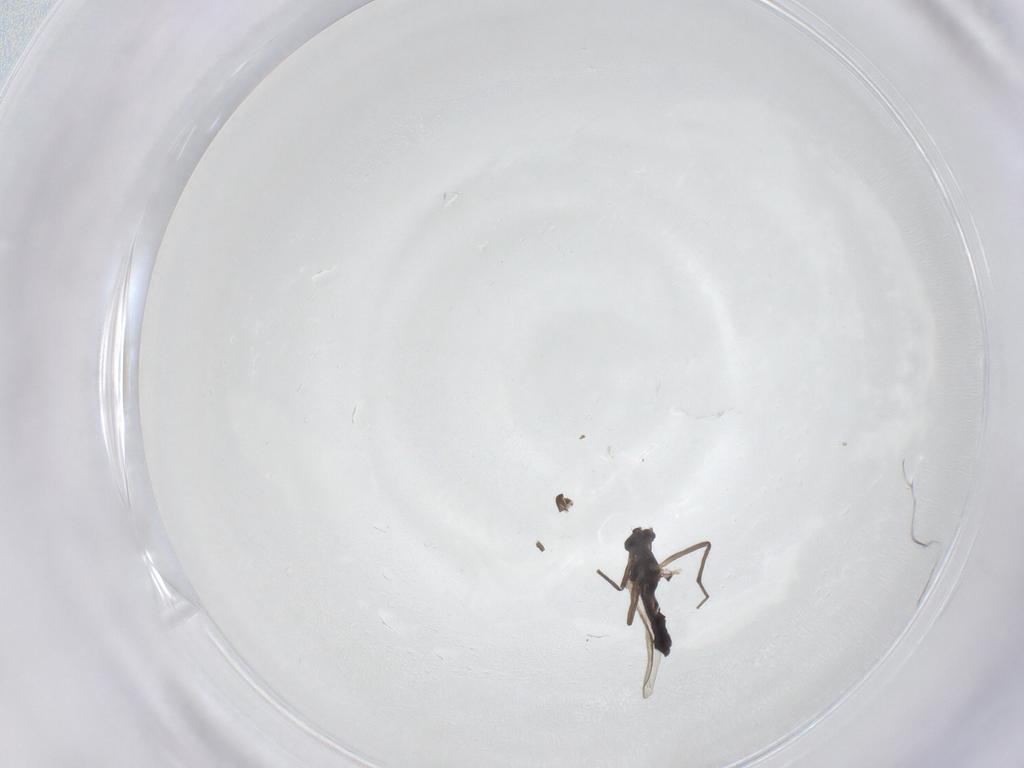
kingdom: Animalia
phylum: Arthropoda
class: Insecta
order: Diptera
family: Chironomidae
